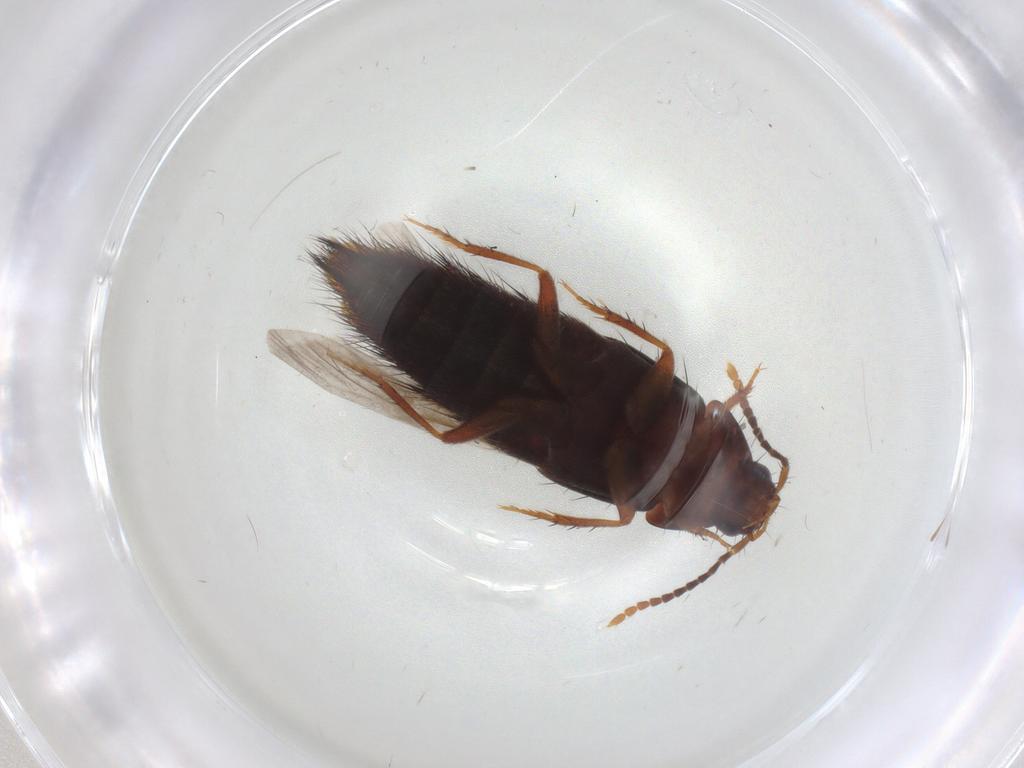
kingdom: Animalia
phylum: Arthropoda
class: Insecta
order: Coleoptera
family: Staphylinidae
